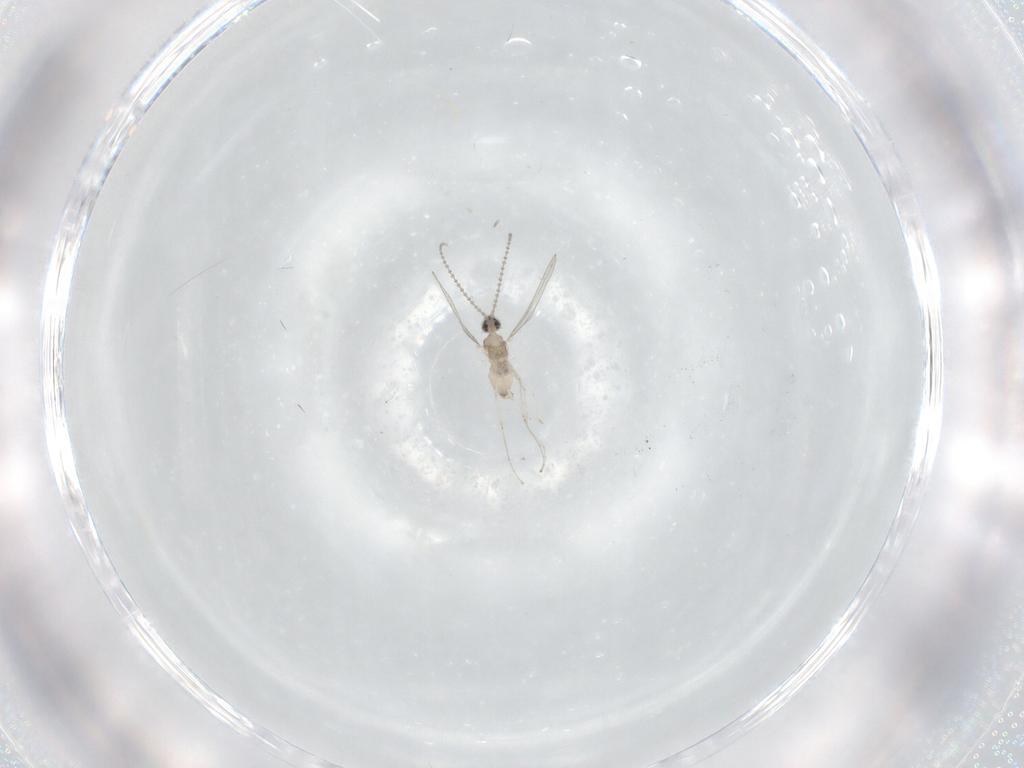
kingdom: Animalia
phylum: Arthropoda
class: Insecta
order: Diptera
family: Cecidomyiidae
